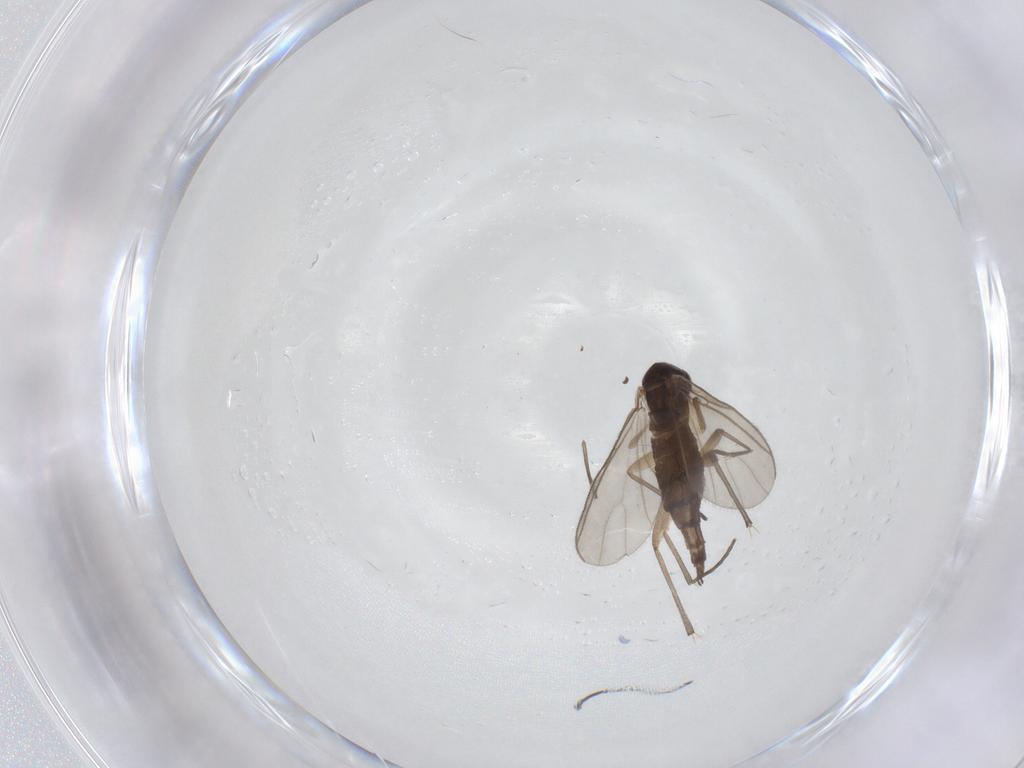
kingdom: Animalia
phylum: Arthropoda
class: Insecta
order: Diptera
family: Sciaridae
